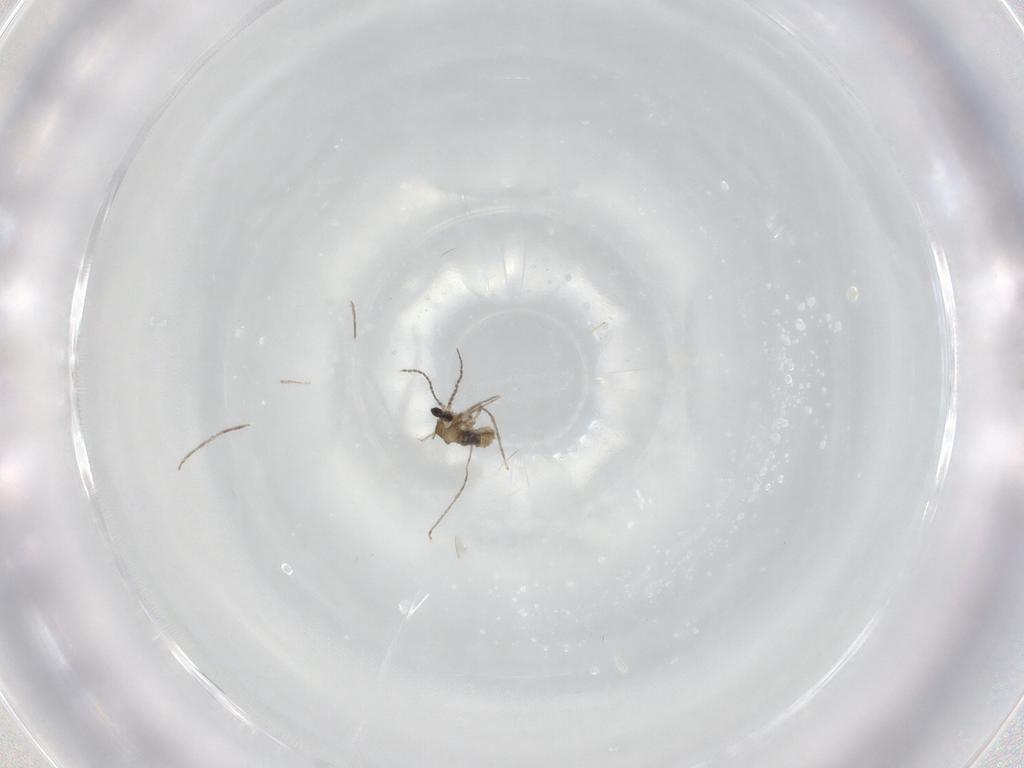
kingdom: Animalia
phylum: Arthropoda
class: Insecta
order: Diptera
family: Cecidomyiidae
